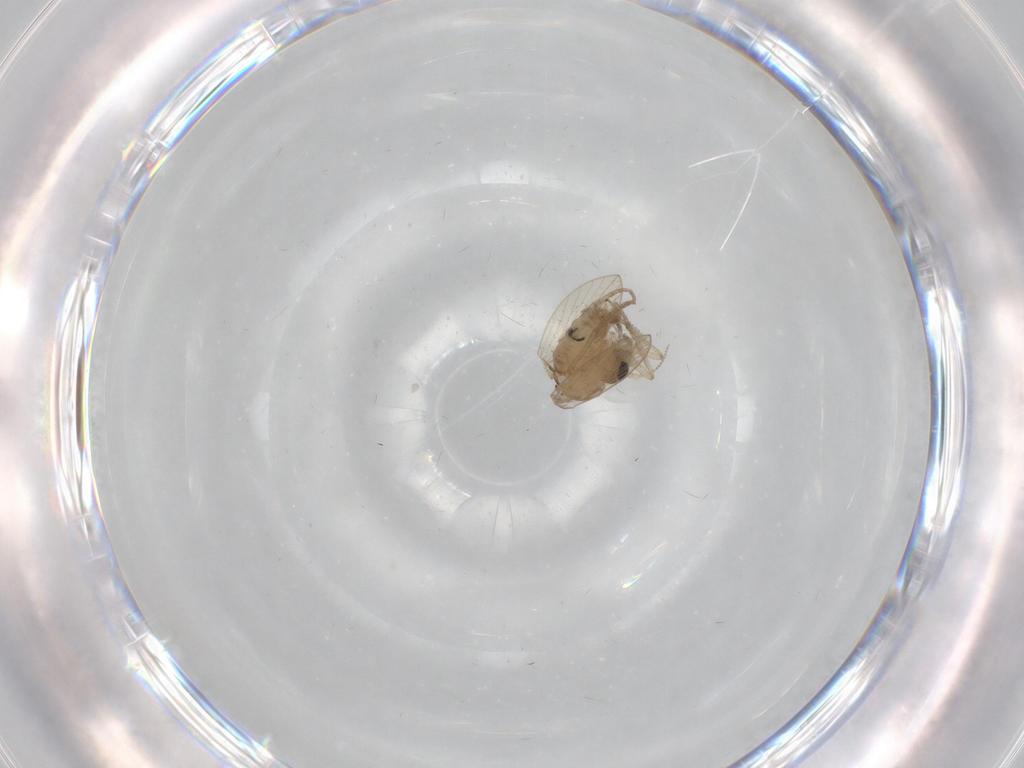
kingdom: Animalia
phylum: Arthropoda
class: Insecta
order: Diptera
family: Psychodidae
